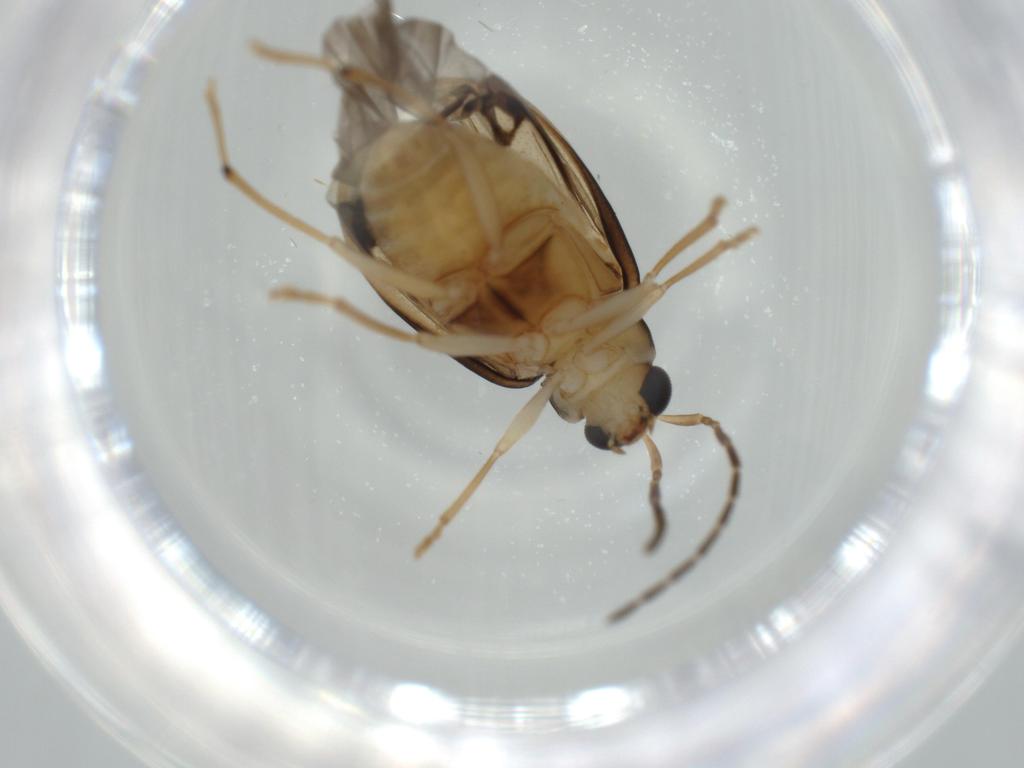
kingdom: Animalia
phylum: Arthropoda
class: Insecta
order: Coleoptera
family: Chrysomelidae
